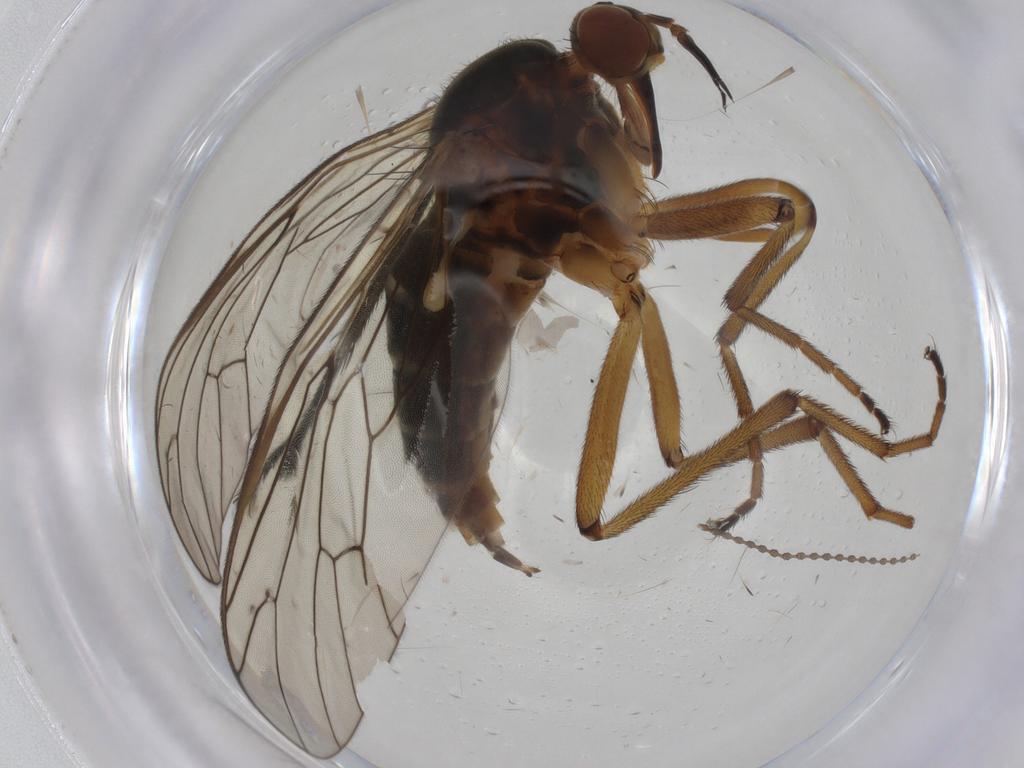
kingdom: Animalia
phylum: Arthropoda
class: Insecta
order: Diptera
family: Empididae
